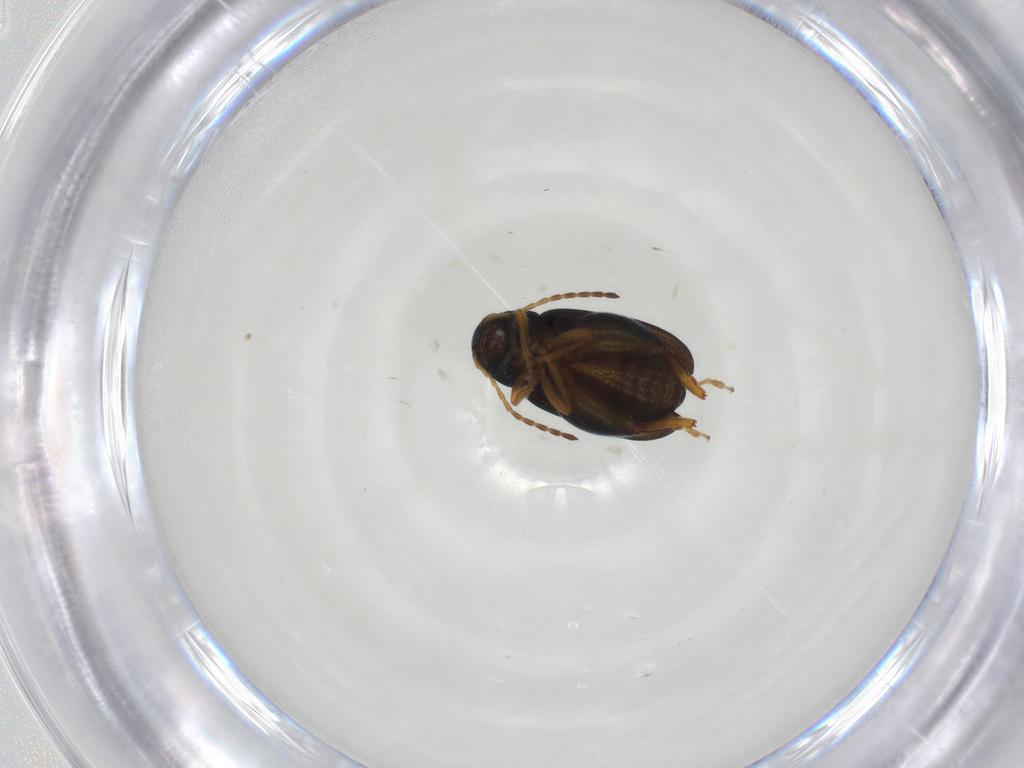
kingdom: Animalia
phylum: Arthropoda
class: Insecta
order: Coleoptera
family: Chrysomelidae
